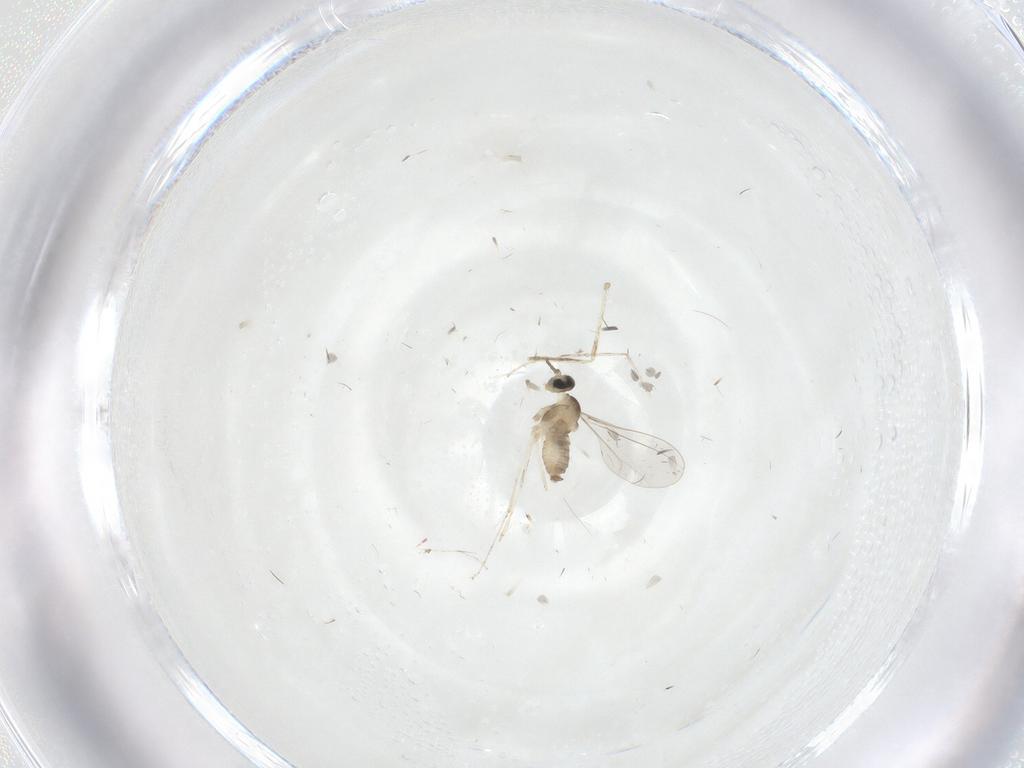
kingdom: Animalia
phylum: Arthropoda
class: Insecta
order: Diptera
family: Cecidomyiidae
